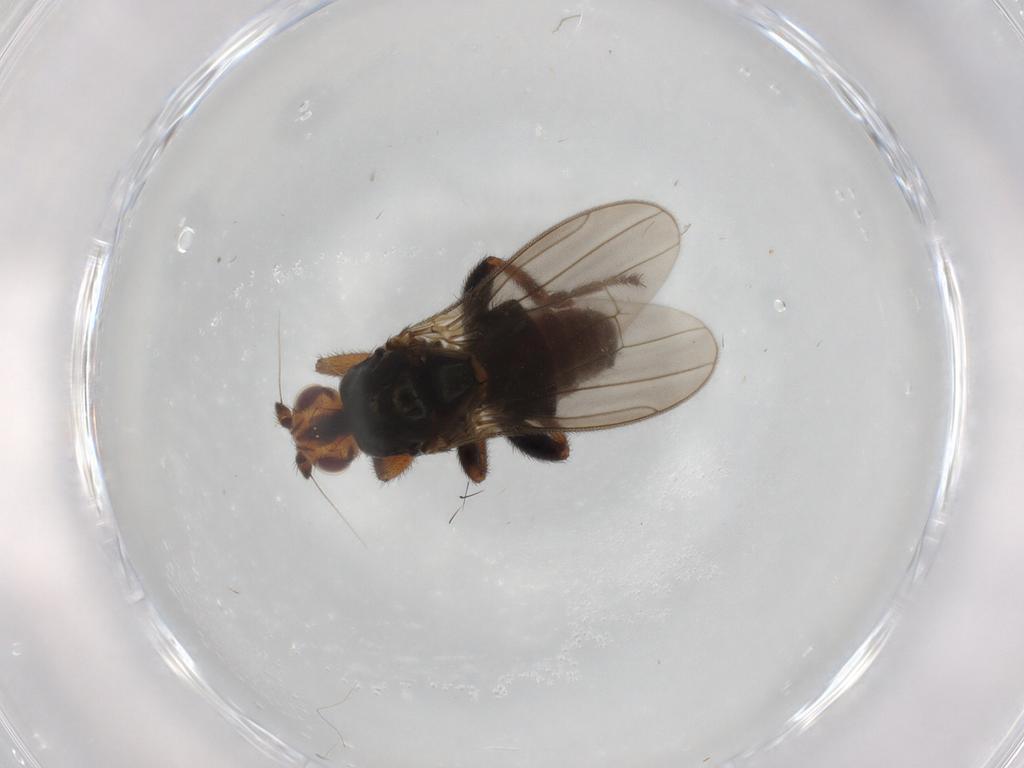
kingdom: Animalia
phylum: Arthropoda
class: Insecta
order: Diptera
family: Sphaeroceridae
